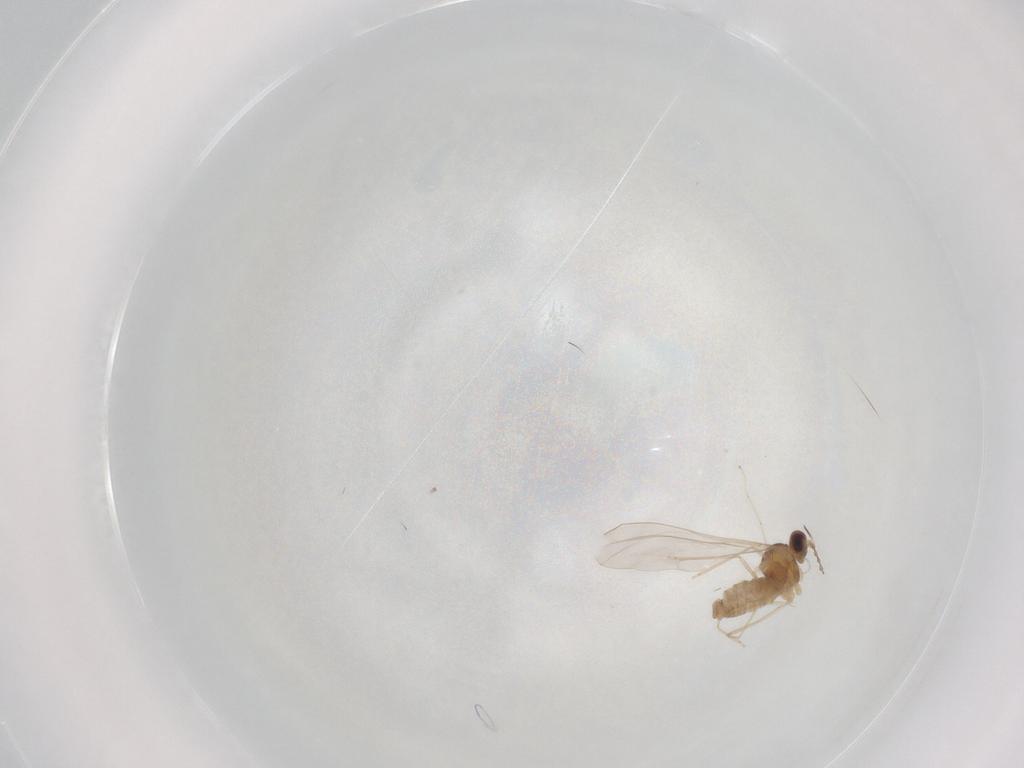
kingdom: Animalia
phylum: Arthropoda
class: Insecta
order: Diptera
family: Cecidomyiidae
